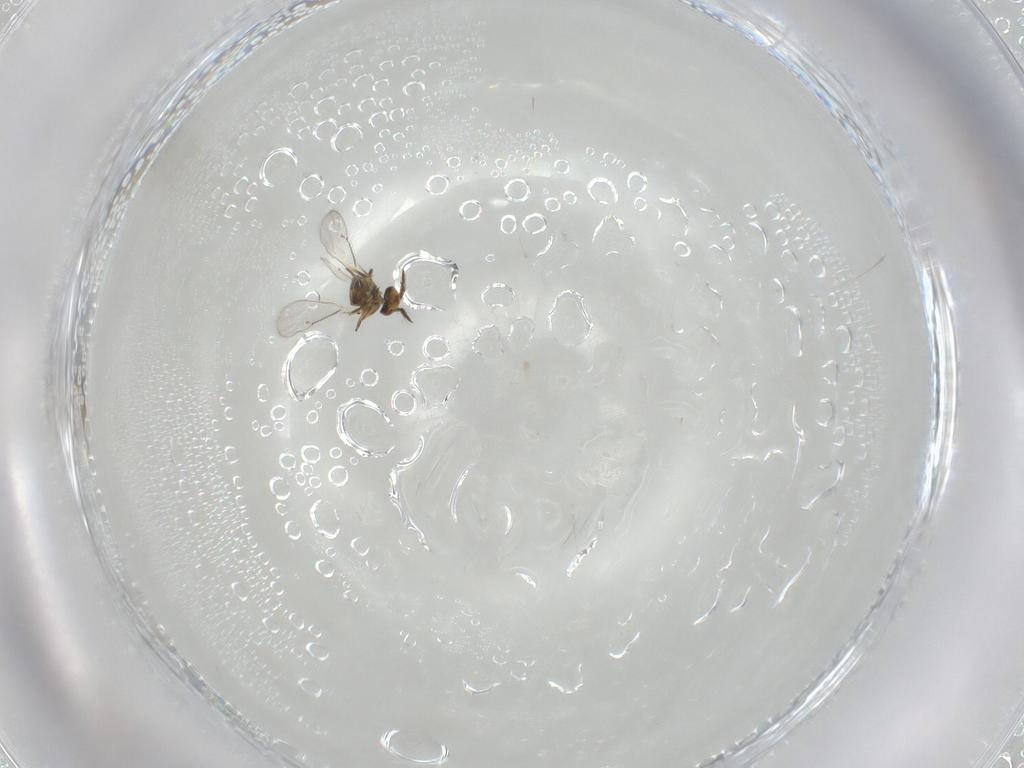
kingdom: Animalia
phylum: Arthropoda
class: Insecta
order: Hymenoptera
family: Eulophidae
